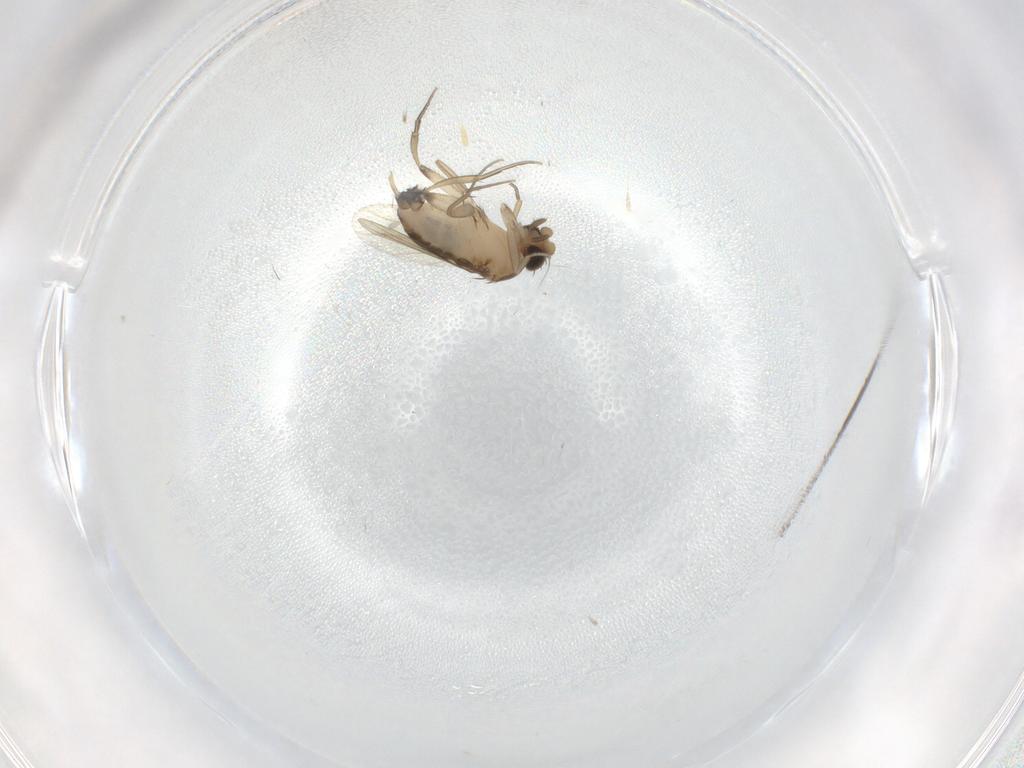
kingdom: Animalia
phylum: Arthropoda
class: Insecta
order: Diptera
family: Phoridae
